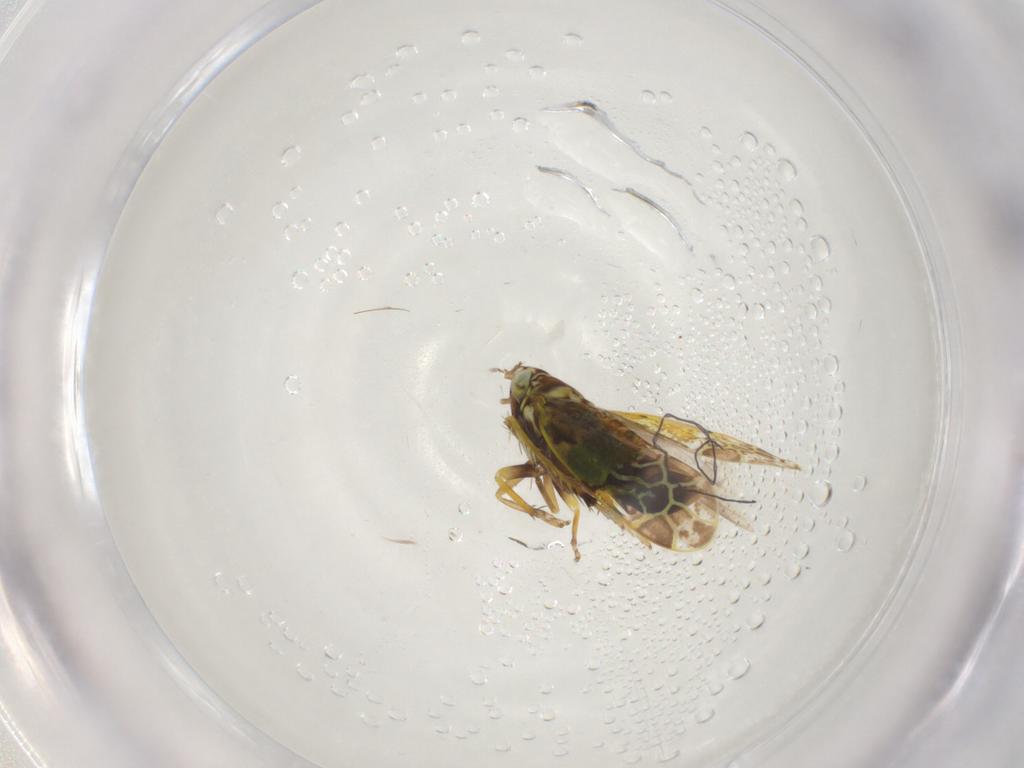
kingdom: Animalia
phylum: Arthropoda
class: Insecta
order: Hemiptera
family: Cicadellidae
